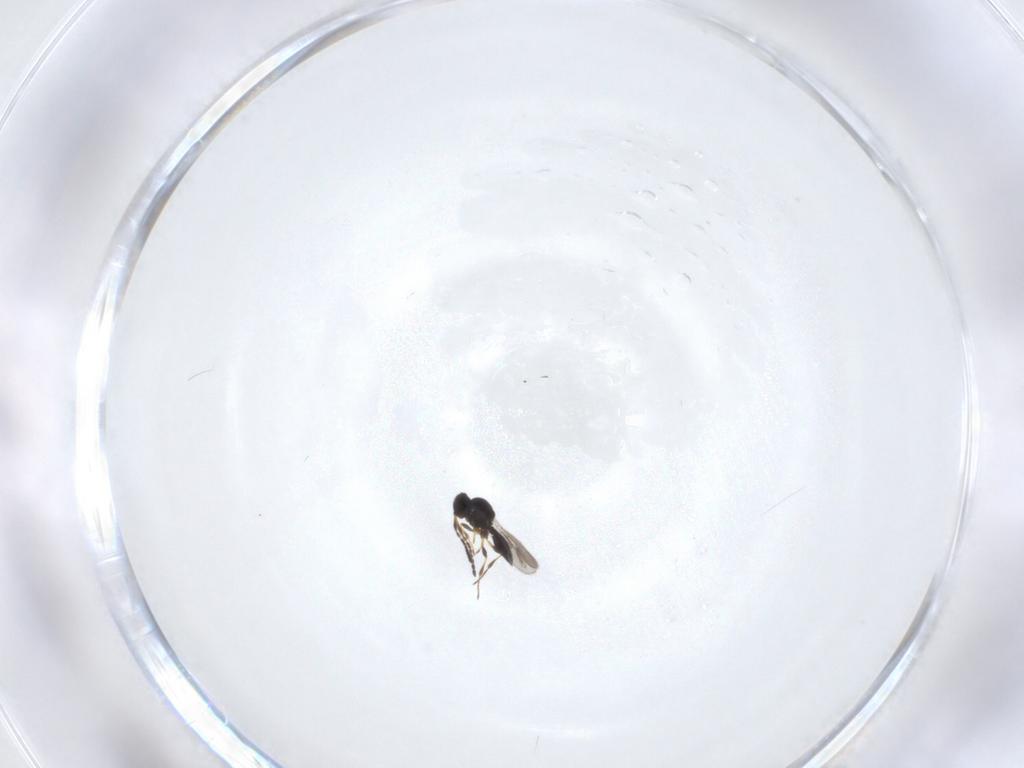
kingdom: Animalia
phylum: Arthropoda
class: Insecta
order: Hymenoptera
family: Platygastridae
